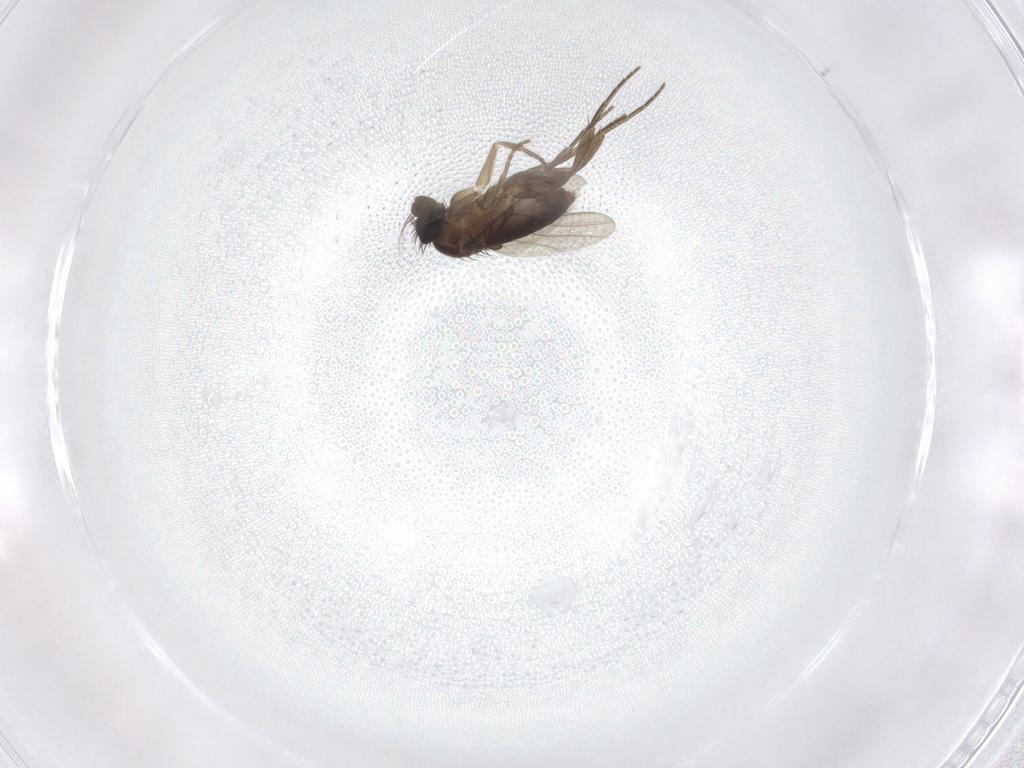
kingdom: Animalia
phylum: Arthropoda
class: Insecta
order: Diptera
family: Phoridae
